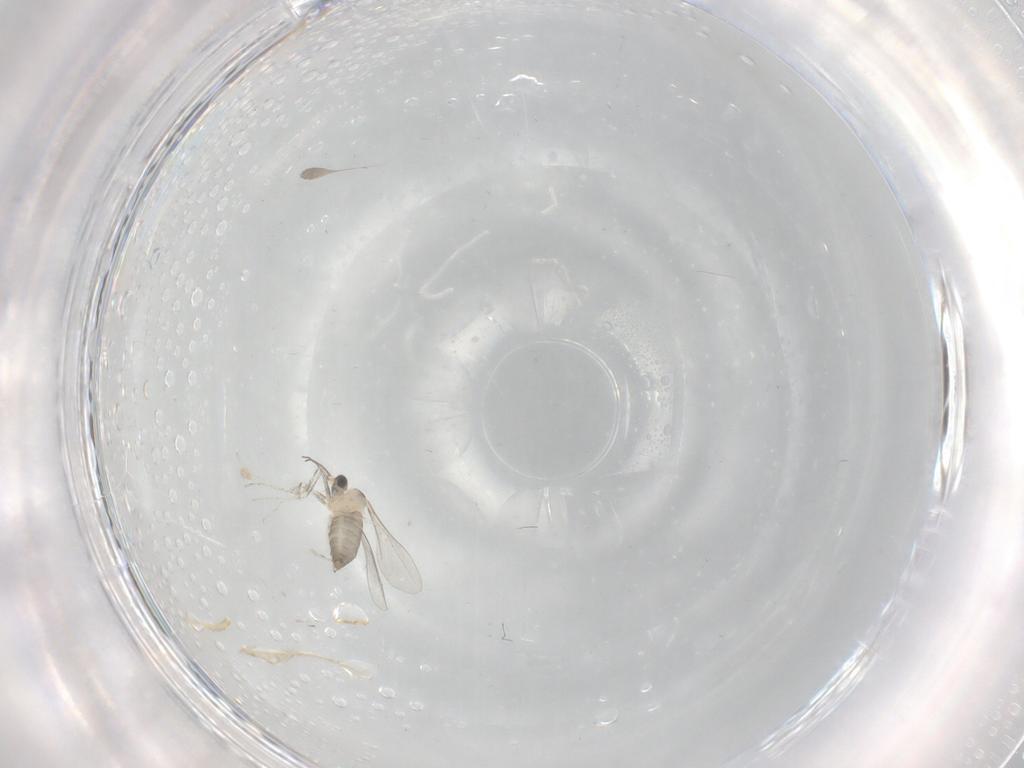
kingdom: Animalia
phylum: Arthropoda
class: Insecta
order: Diptera
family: Cecidomyiidae
